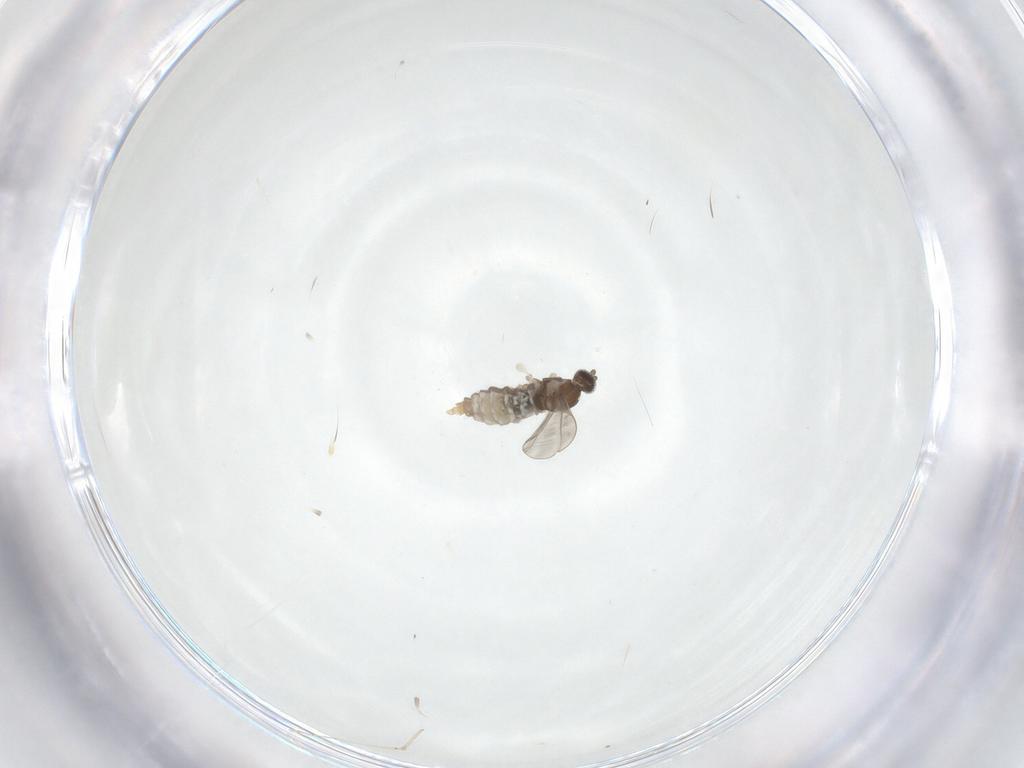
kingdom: Animalia
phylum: Arthropoda
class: Insecta
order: Diptera
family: Cecidomyiidae
